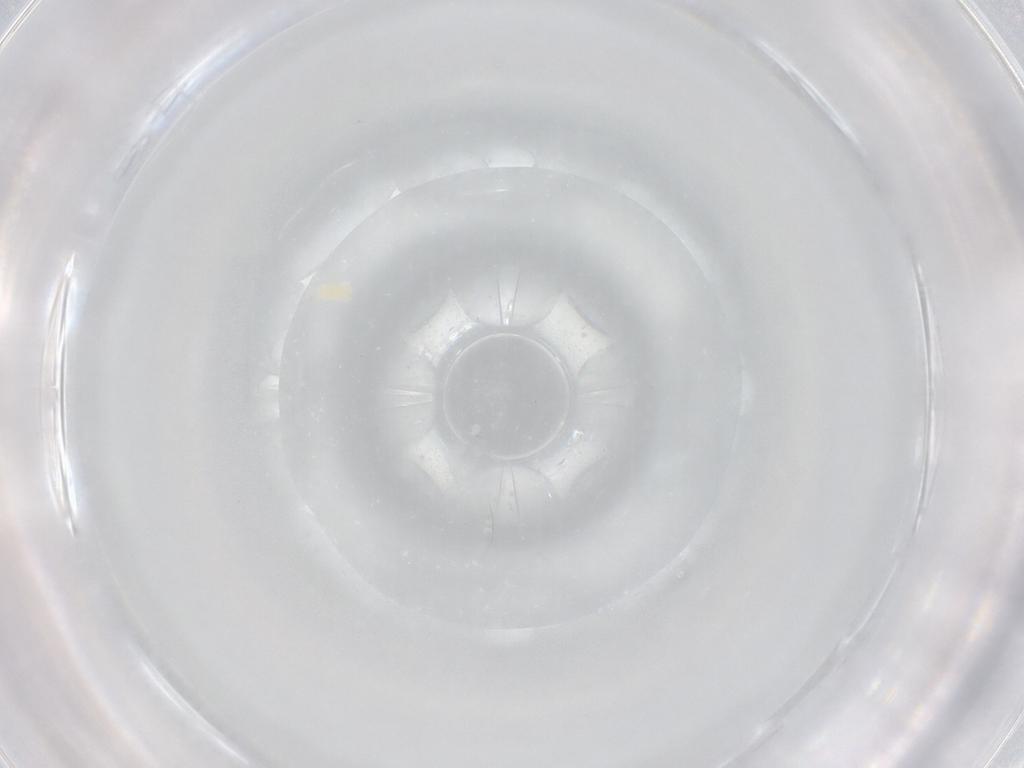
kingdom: Animalia
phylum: Arthropoda
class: Arachnida
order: Trombidiformes
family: Eupodidae
